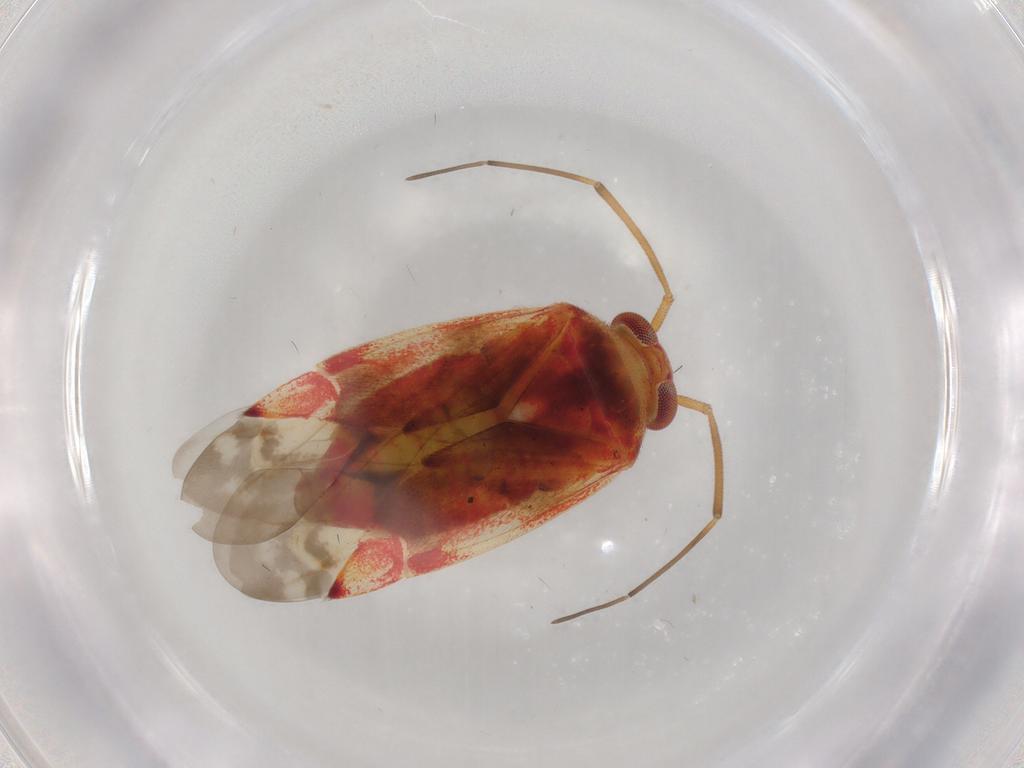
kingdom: Animalia
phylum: Arthropoda
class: Insecta
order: Hemiptera
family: Miridae
